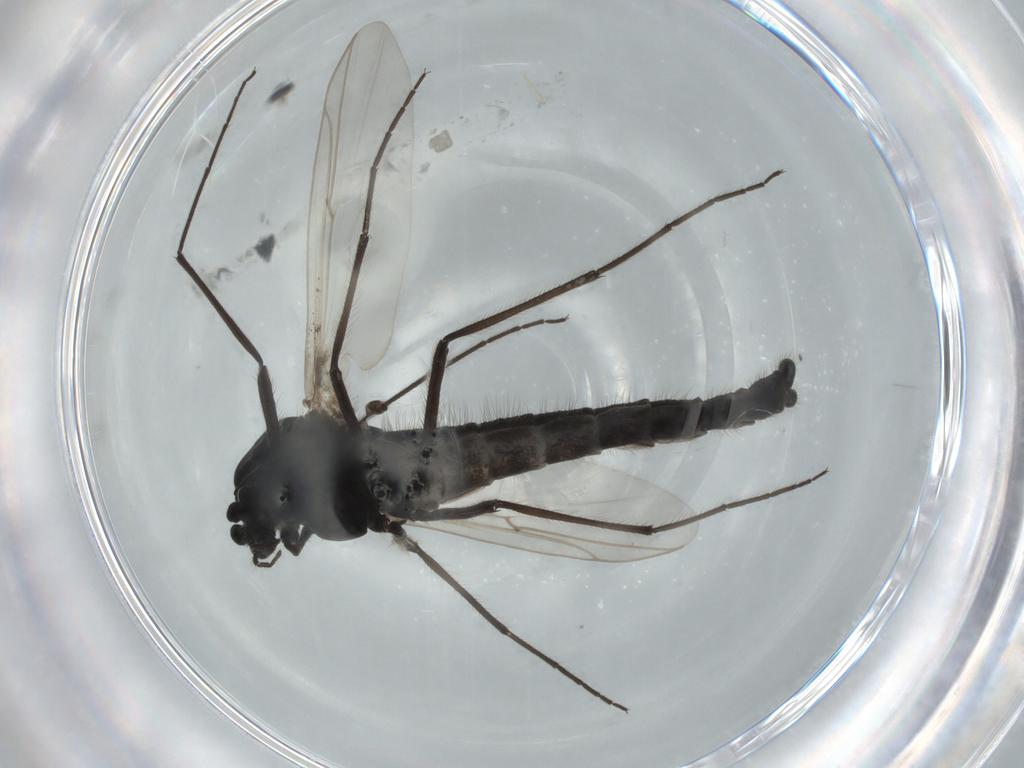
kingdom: Animalia
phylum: Arthropoda
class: Insecta
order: Diptera
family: Chironomidae
